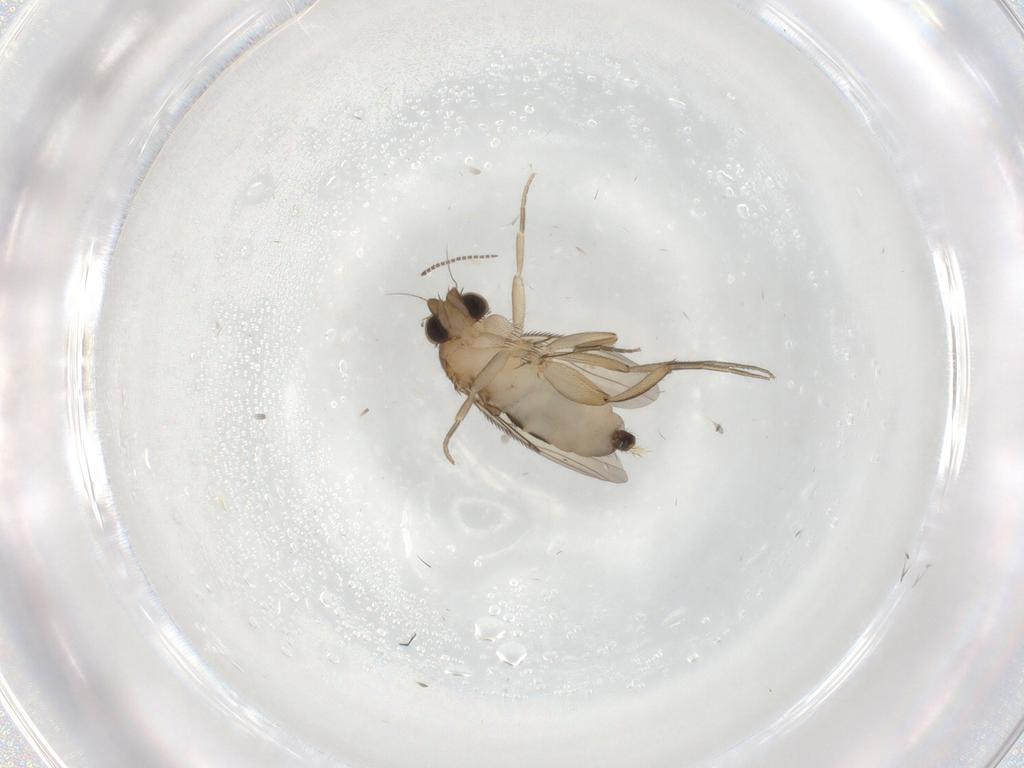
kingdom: Animalia
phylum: Arthropoda
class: Insecta
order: Diptera
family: Phoridae
